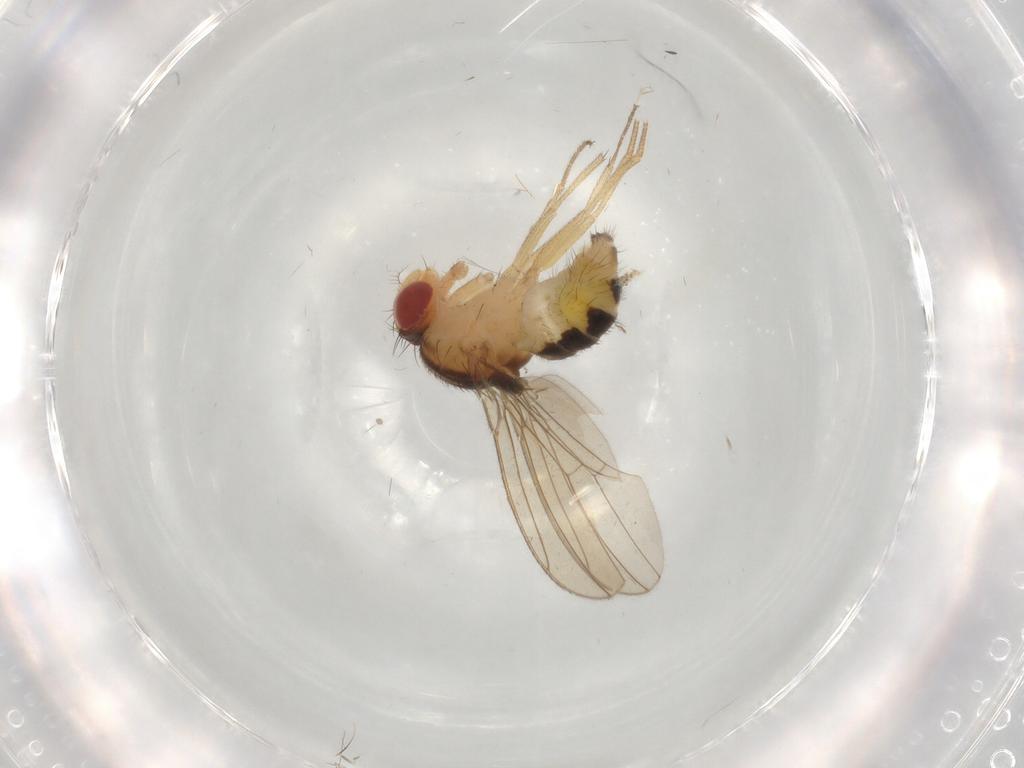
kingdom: Animalia
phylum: Arthropoda
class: Insecta
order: Diptera
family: Drosophilidae
